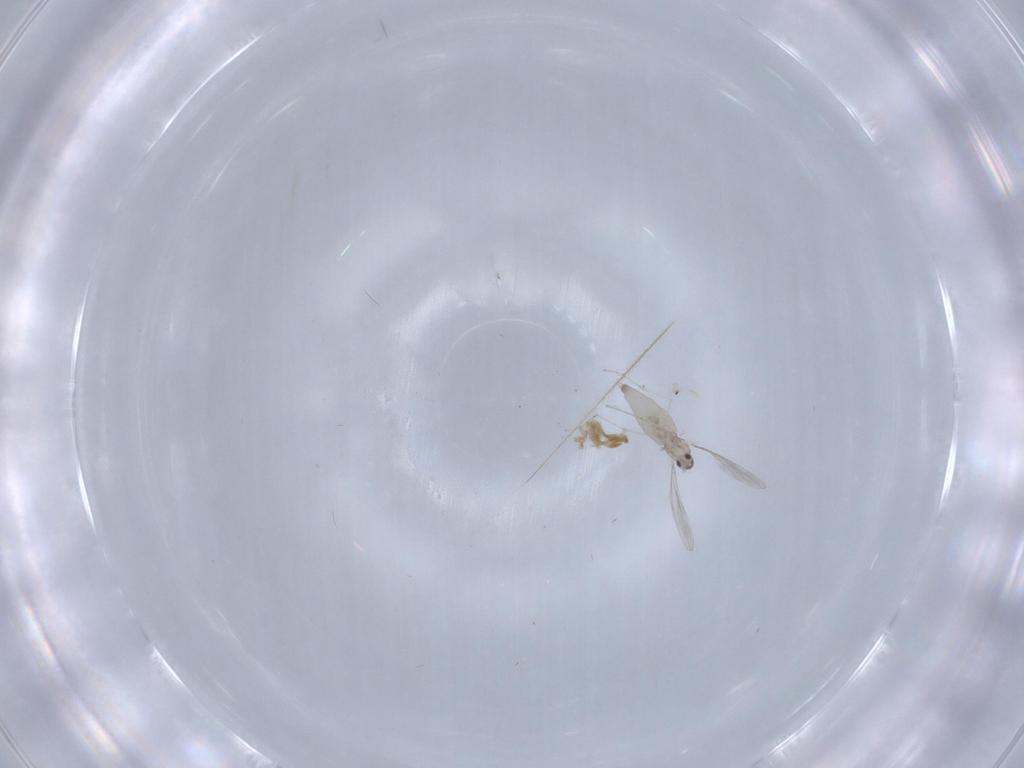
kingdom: Animalia
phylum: Arthropoda
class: Insecta
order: Diptera
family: Cecidomyiidae
